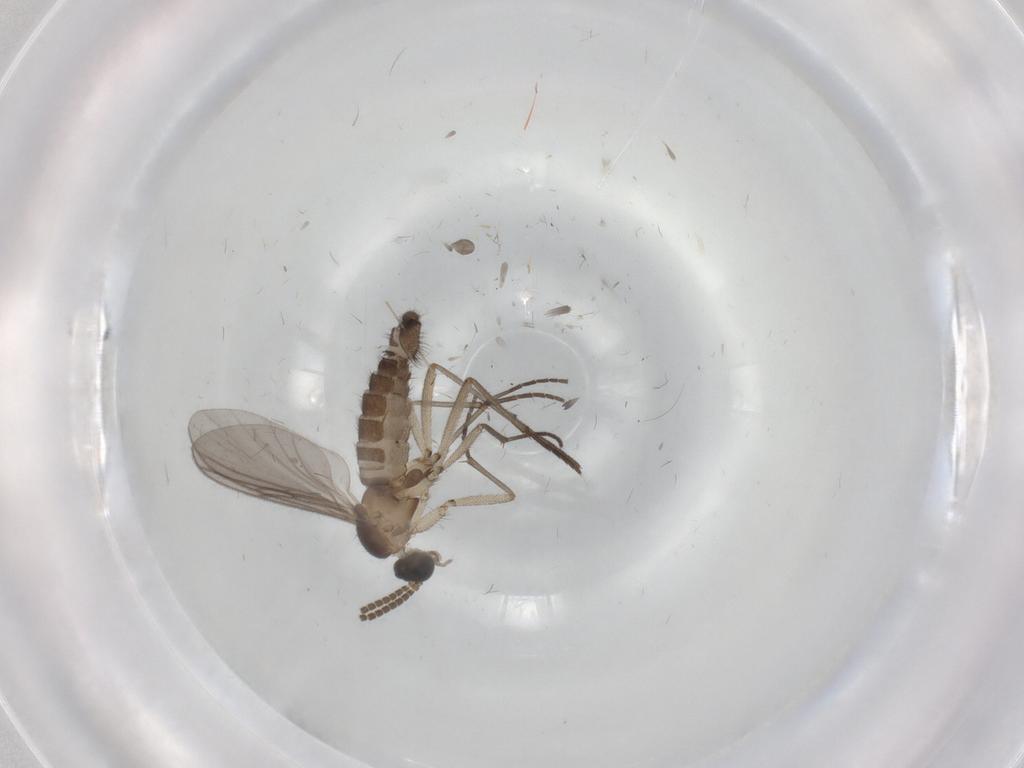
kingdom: Animalia
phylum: Arthropoda
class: Insecta
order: Diptera
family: Sciaridae
